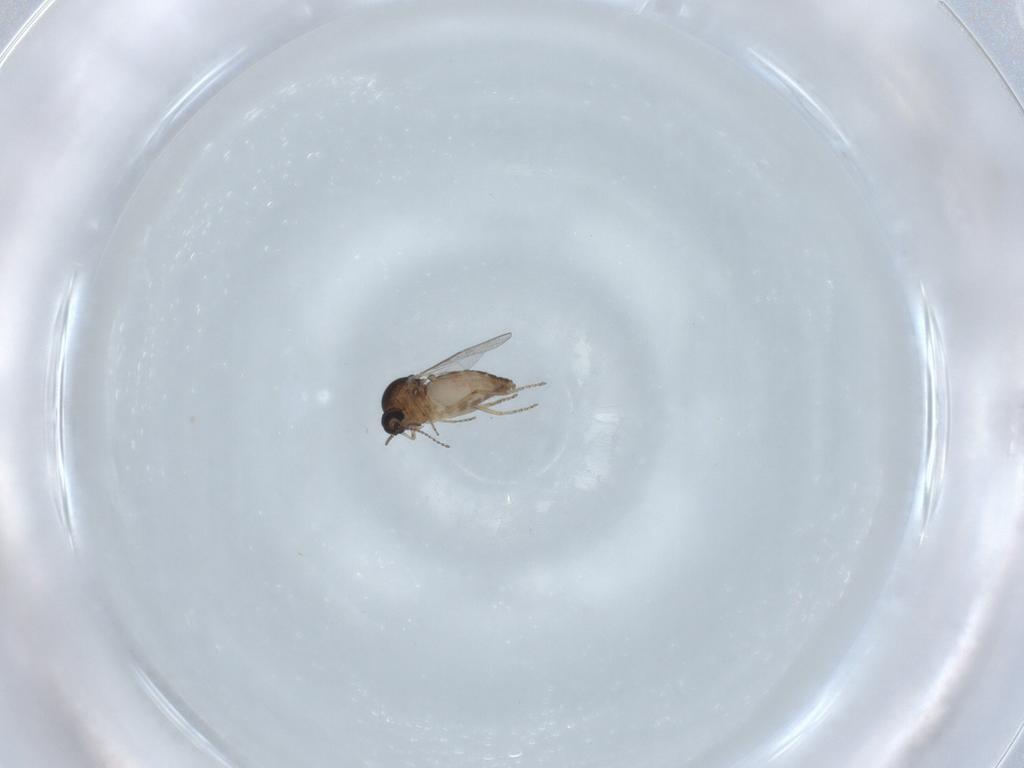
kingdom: Animalia
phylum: Arthropoda
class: Insecta
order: Diptera
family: Ceratopogonidae
